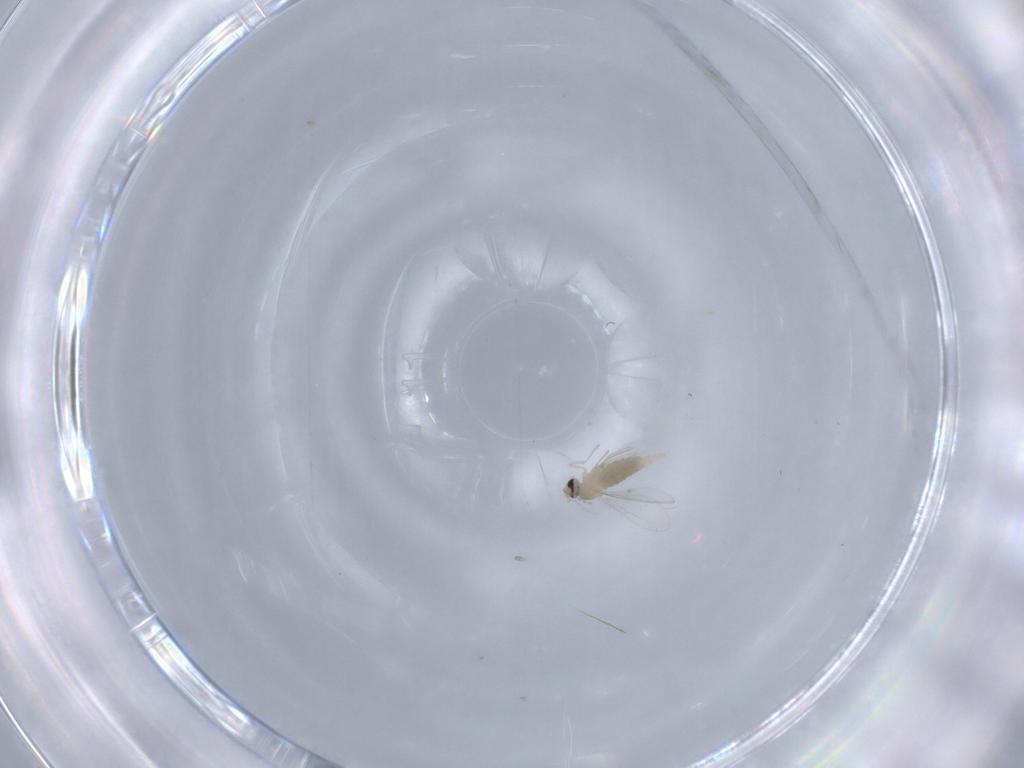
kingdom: Animalia
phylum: Arthropoda
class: Insecta
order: Diptera
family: Cecidomyiidae
